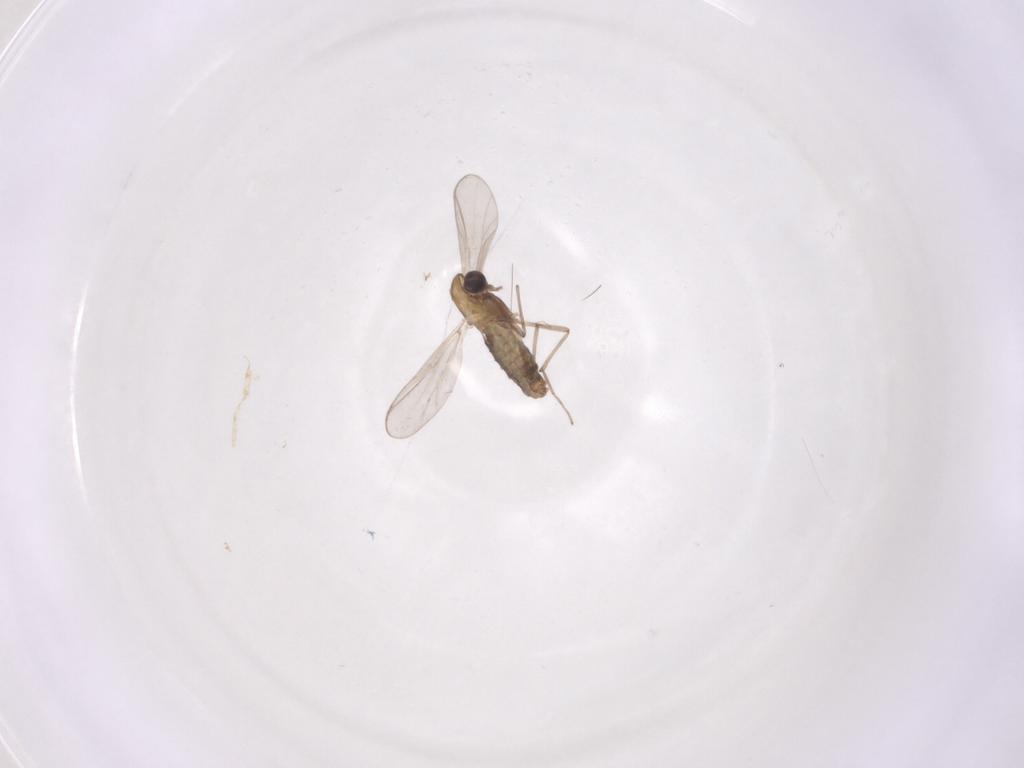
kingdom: Animalia
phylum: Arthropoda
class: Insecta
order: Diptera
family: Chironomidae
